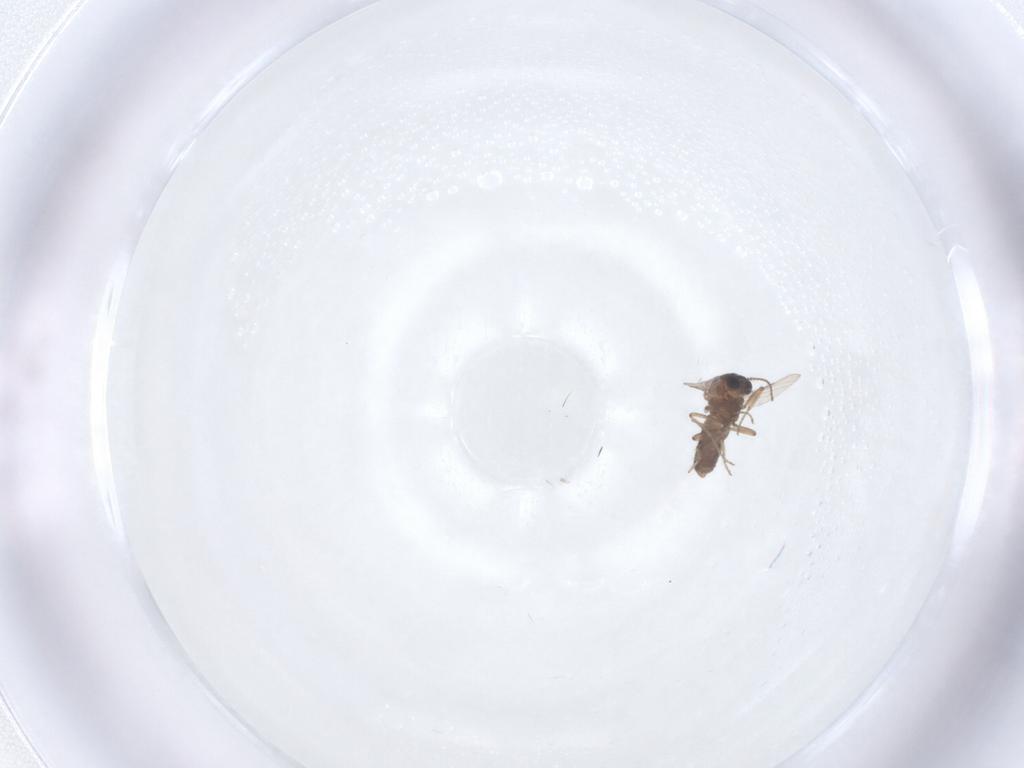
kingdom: Animalia
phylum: Arthropoda
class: Insecta
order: Diptera
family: Ceratopogonidae
